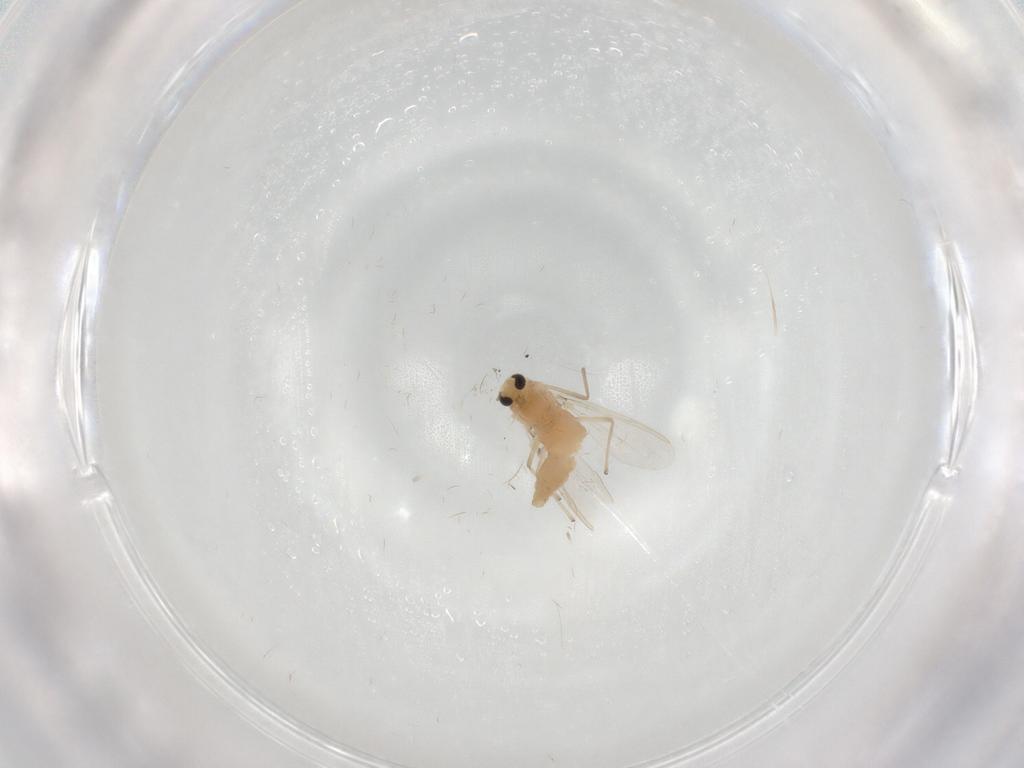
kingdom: Animalia
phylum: Arthropoda
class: Insecta
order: Diptera
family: Chironomidae
